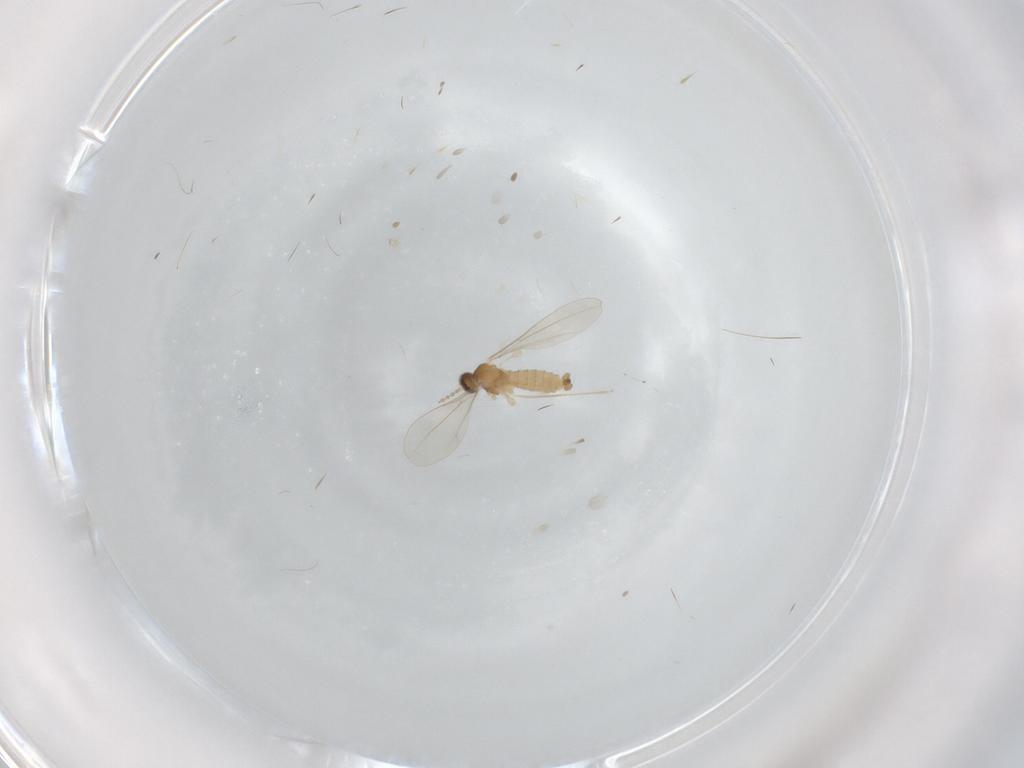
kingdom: Animalia
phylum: Arthropoda
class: Insecta
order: Diptera
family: Cecidomyiidae
